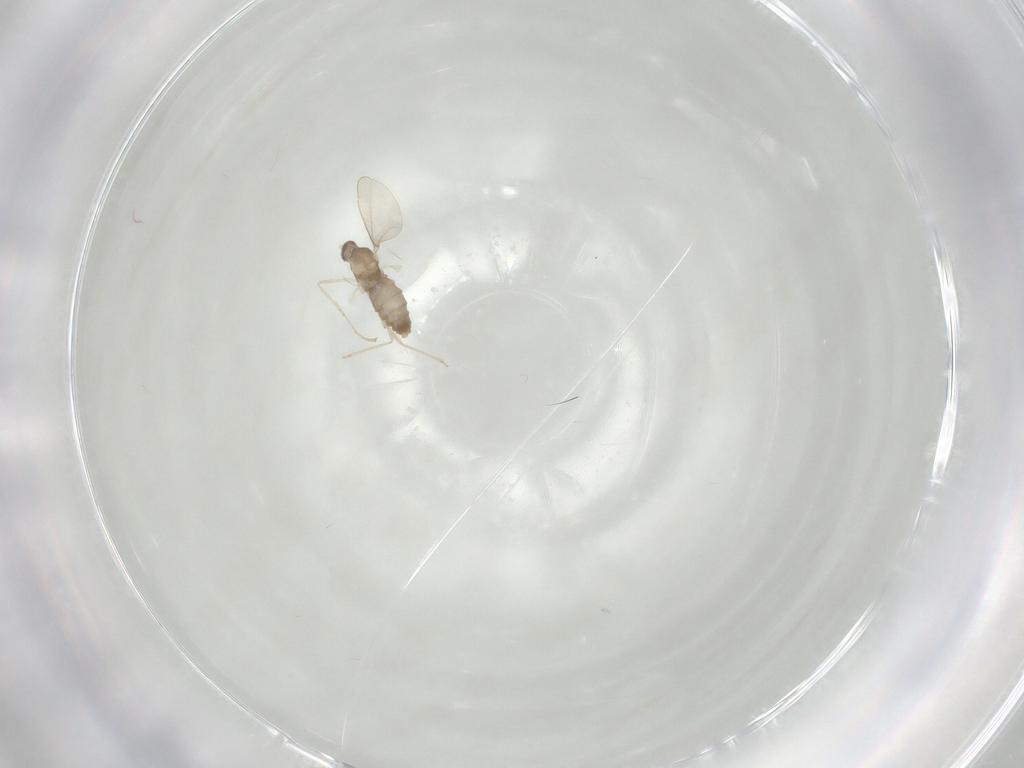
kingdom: Animalia
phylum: Arthropoda
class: Insecta
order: Diptera
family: Cecidomyiidae
